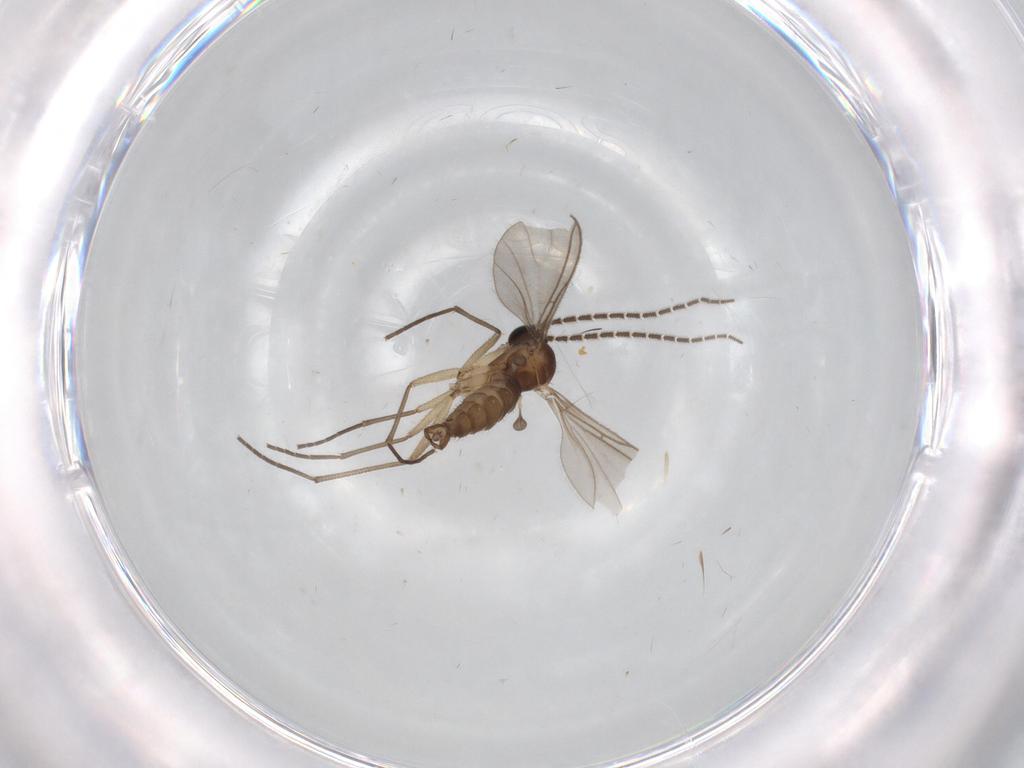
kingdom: Animalia
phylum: Arthropoda
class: Insecta
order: Diptera
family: Sciaridae
